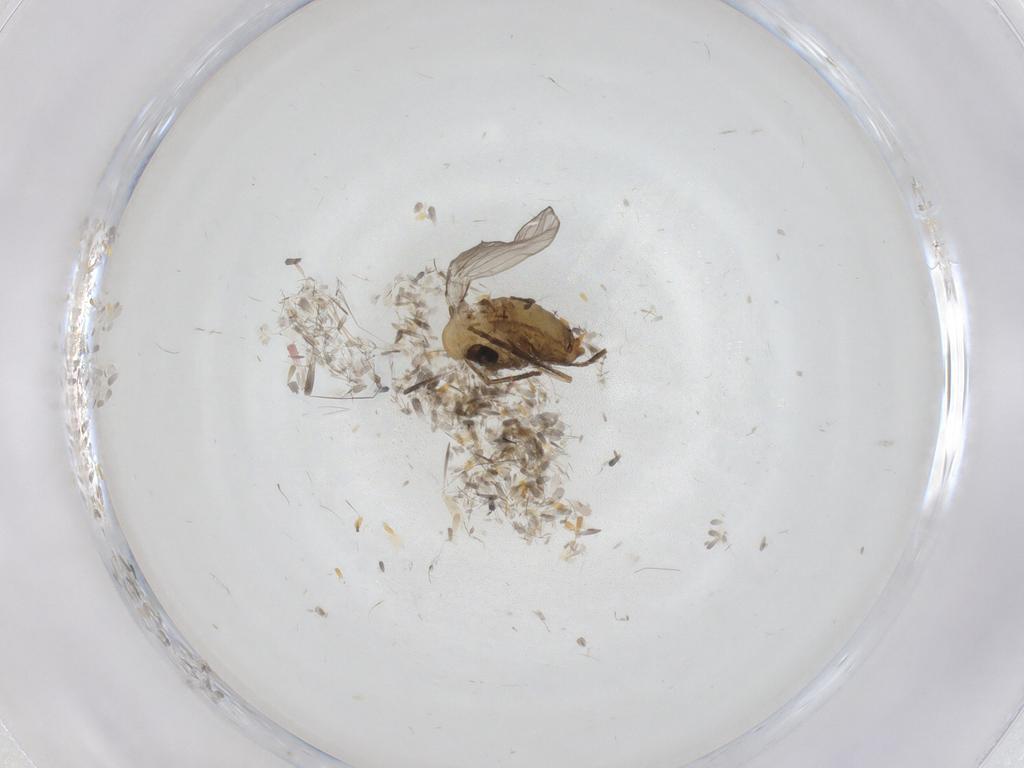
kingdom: Animalia
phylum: Arthropoda
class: Insecta
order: Diptera
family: Psychodidae
